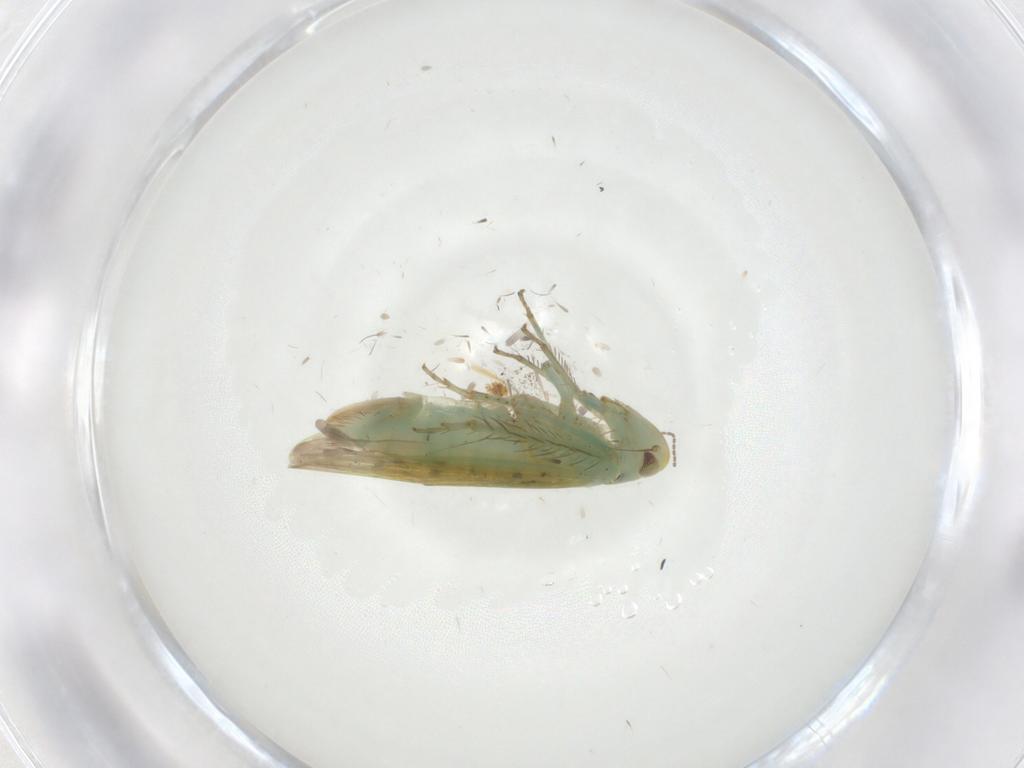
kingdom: Animalia
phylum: Arthropoda
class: Insecta
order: Hemiptera
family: Cicadellidae
